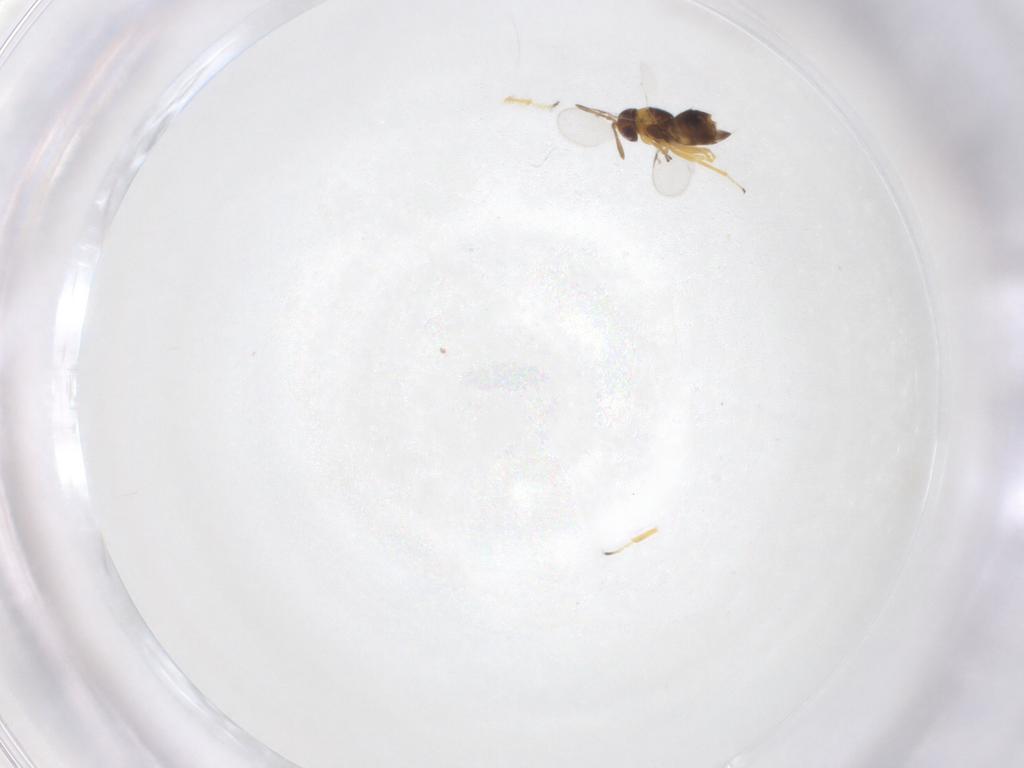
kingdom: Animalia
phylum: Arthropoda
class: Insecta
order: Hymenoptera
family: Encyrtidae
